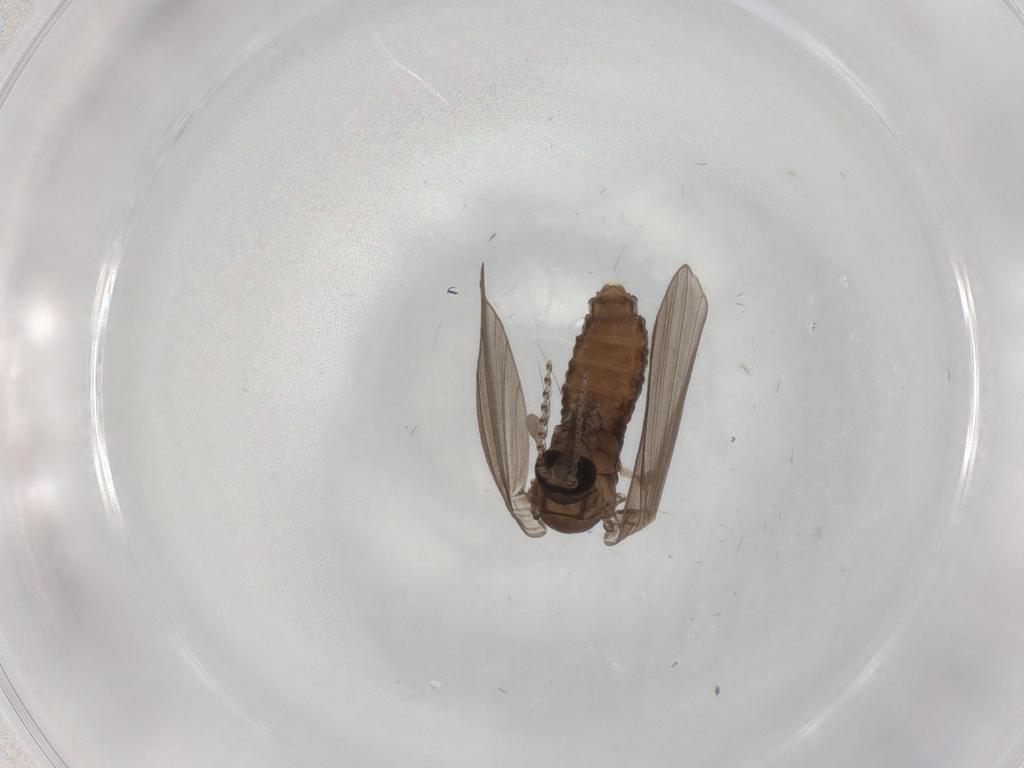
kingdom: Animalia
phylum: Arthropoda
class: Insecta
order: Diptera
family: Psychodidae
